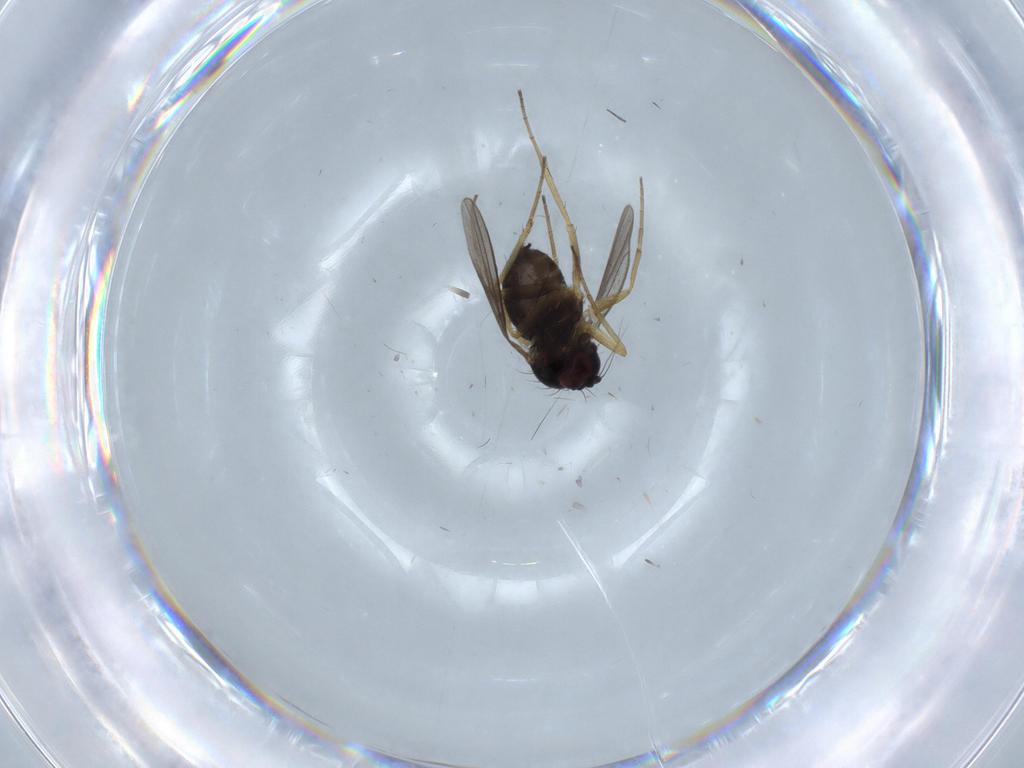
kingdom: Animalia
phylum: Arthropoda
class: Insecta
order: Diptera
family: Dolichopodidae
